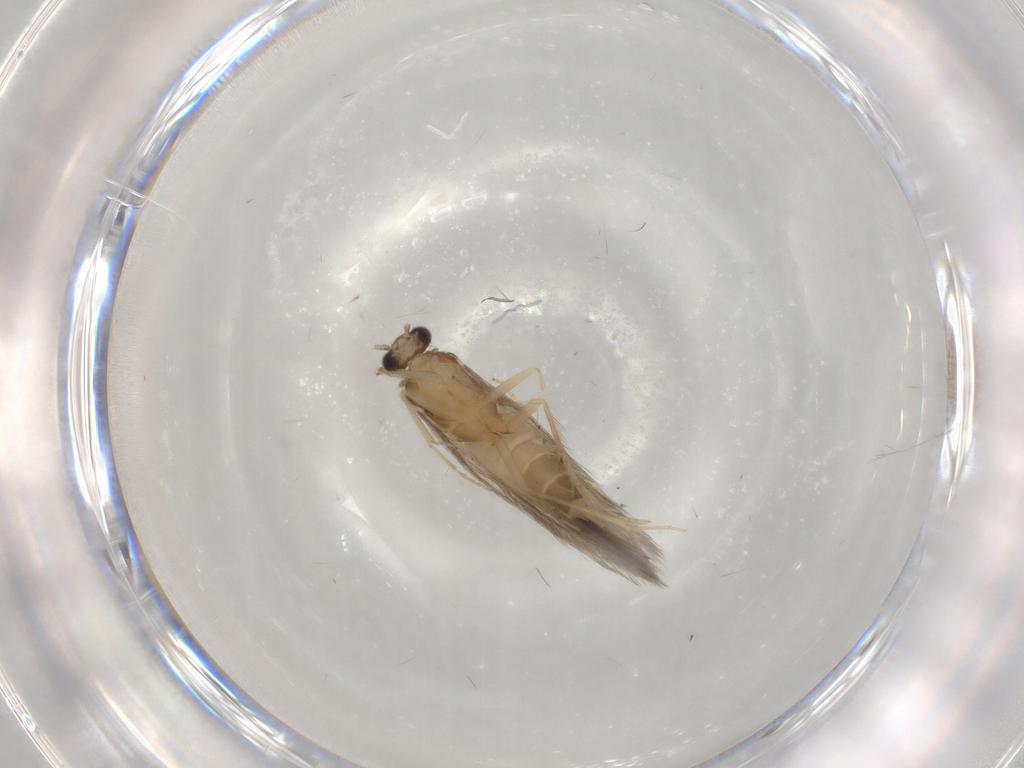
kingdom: Animalia
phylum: Arthropoda
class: Insecta
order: Trichoptera
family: Hydroptilidae
